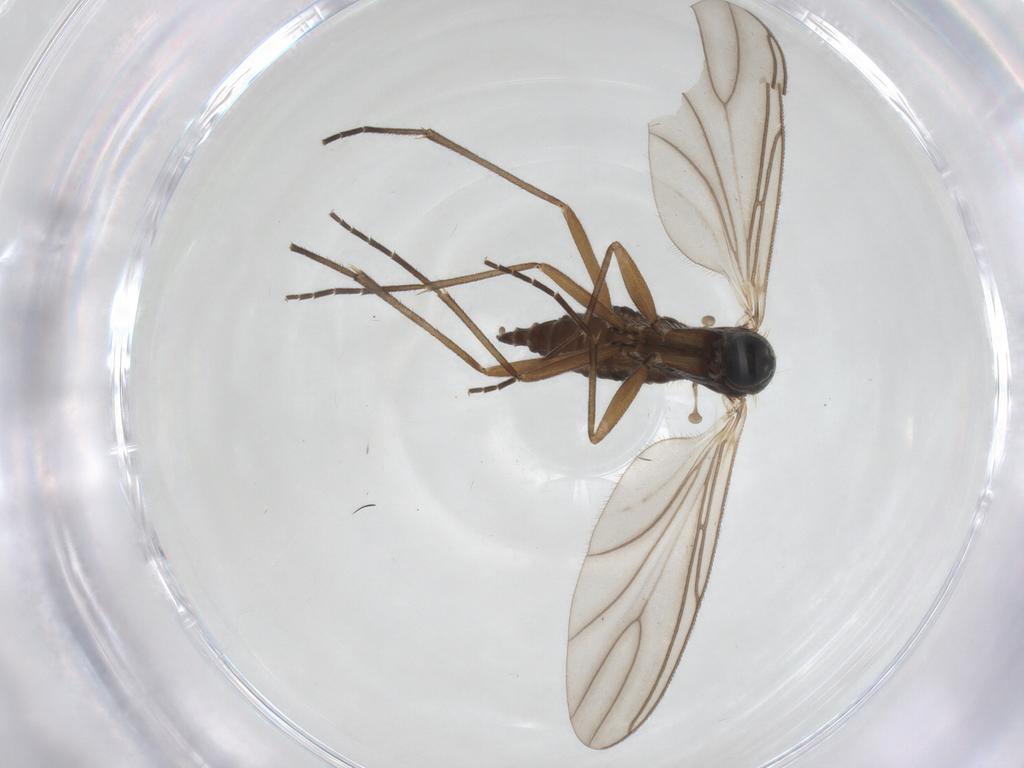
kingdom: Animalia
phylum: Arthropoda
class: Insecta
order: Diptera
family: Sciaridae
